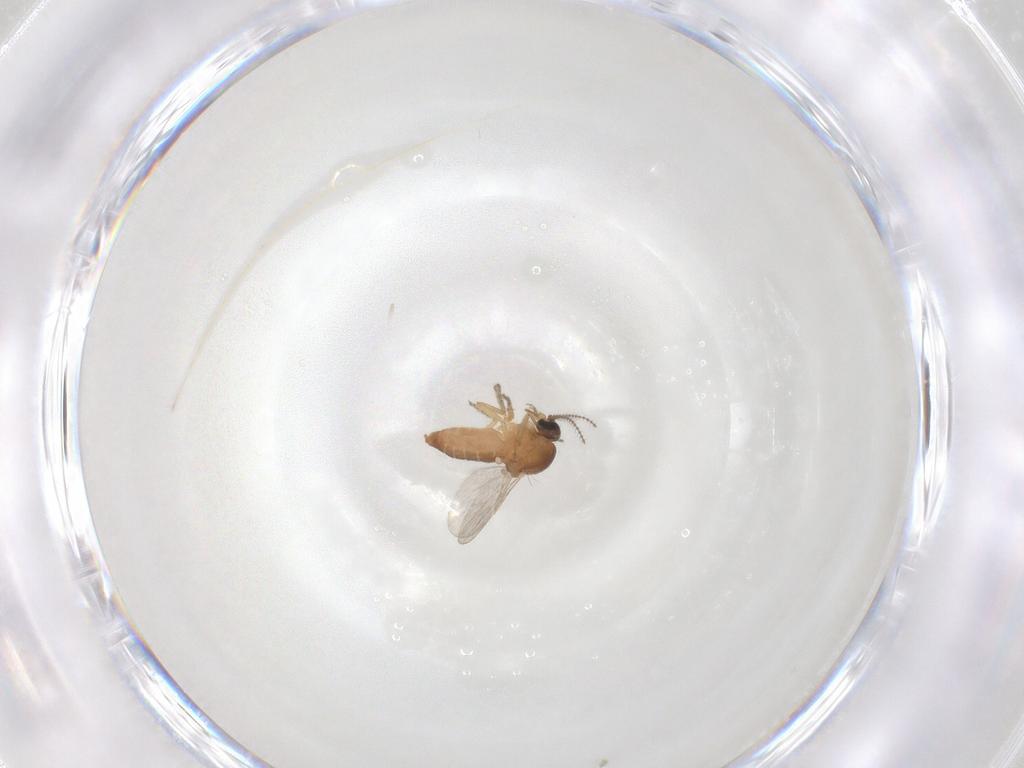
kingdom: Animalia
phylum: Arthropoda
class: Insecta
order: Diptera
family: Ceratopogonidae
